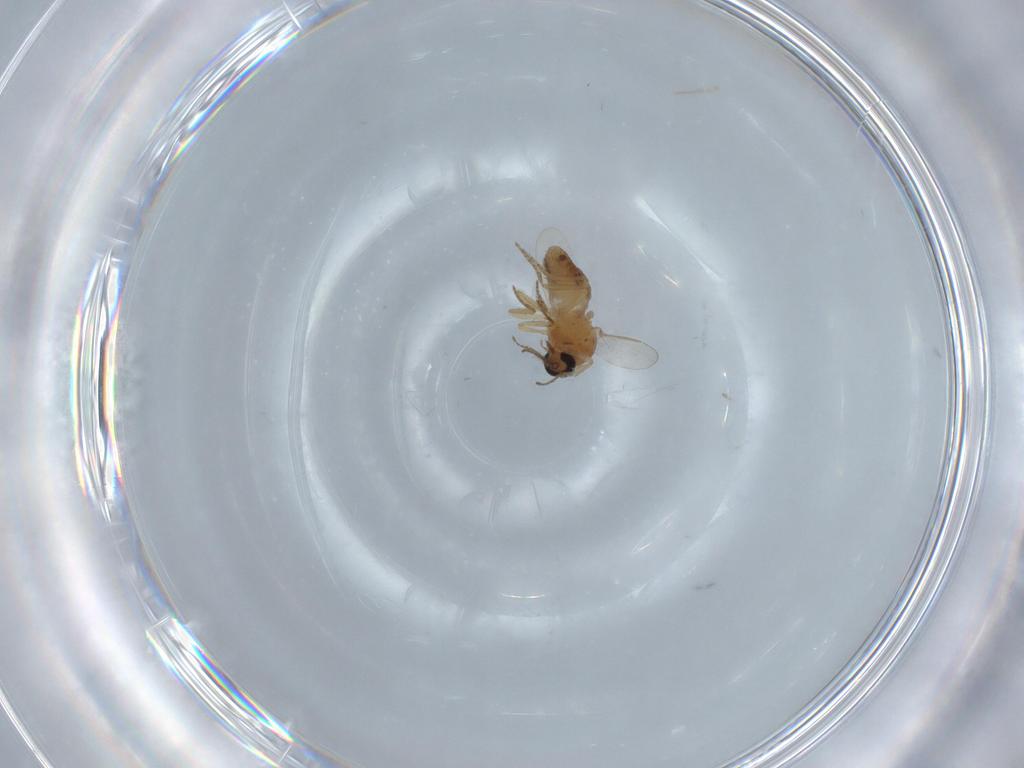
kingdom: Animalia
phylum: Arthropoda
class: Insecta
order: Diptera
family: Ceratopogonidae
